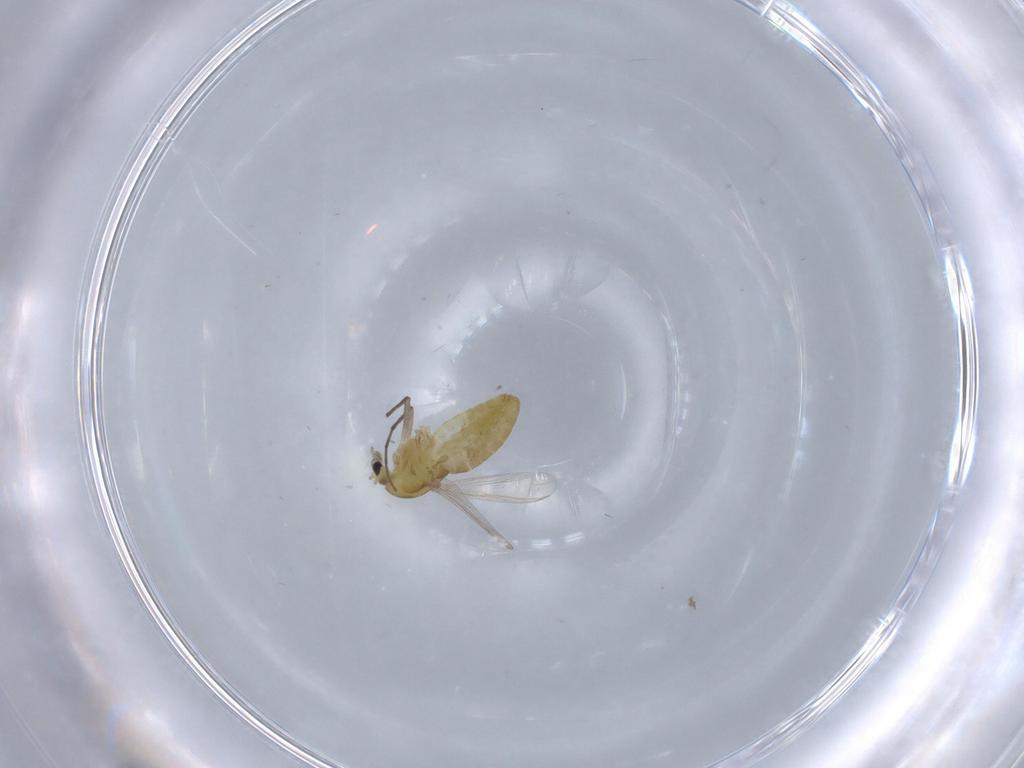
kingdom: Animalia
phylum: Arthropoda
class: Insecta
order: Diptera
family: Chironomidae
